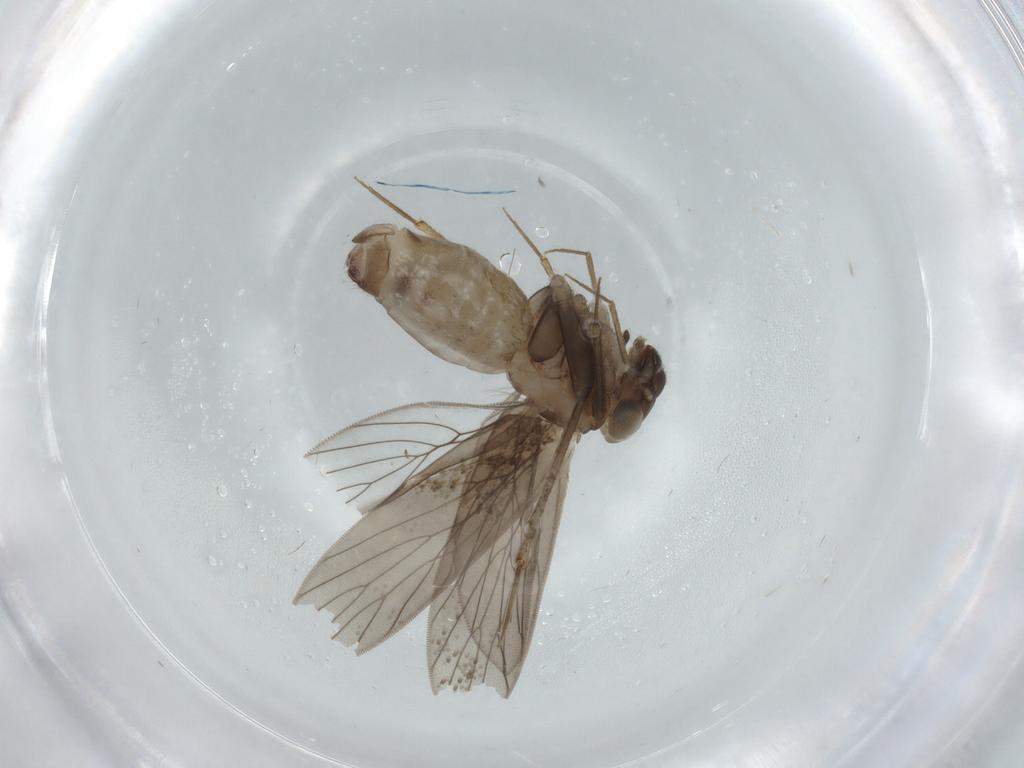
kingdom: Animalia
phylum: Arthropoda
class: Insecta
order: Psocodea
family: Lepidopsocidae
